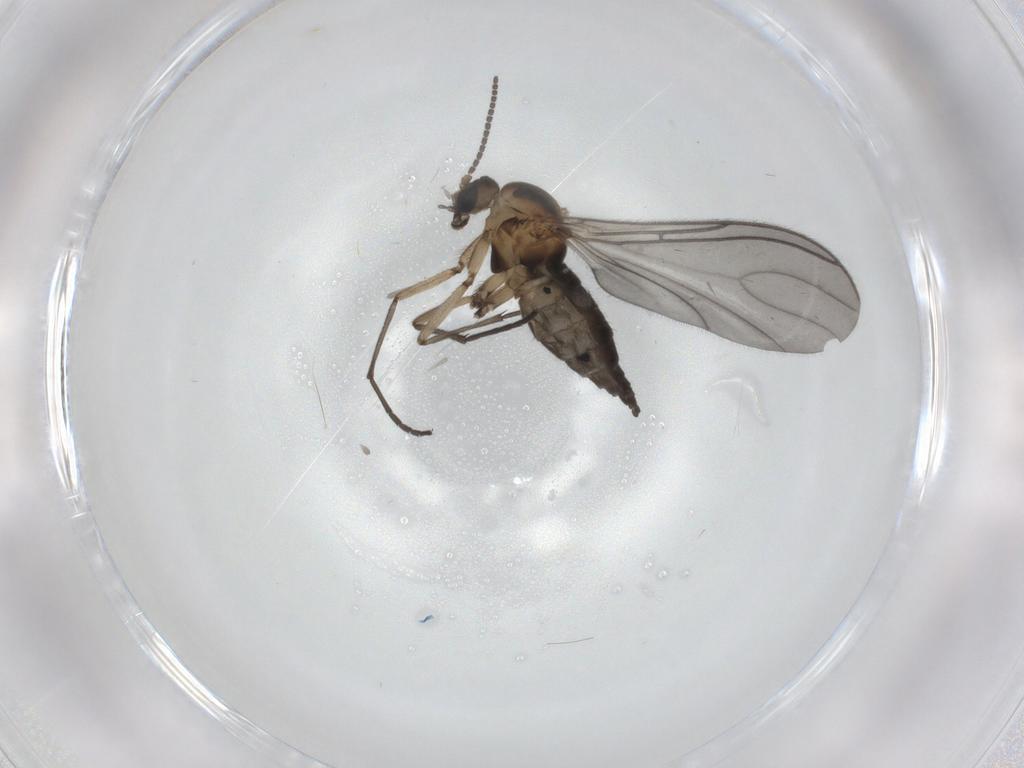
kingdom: Animalia
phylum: Arthropoda
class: Insecta
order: Diptera
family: Sciaridae
